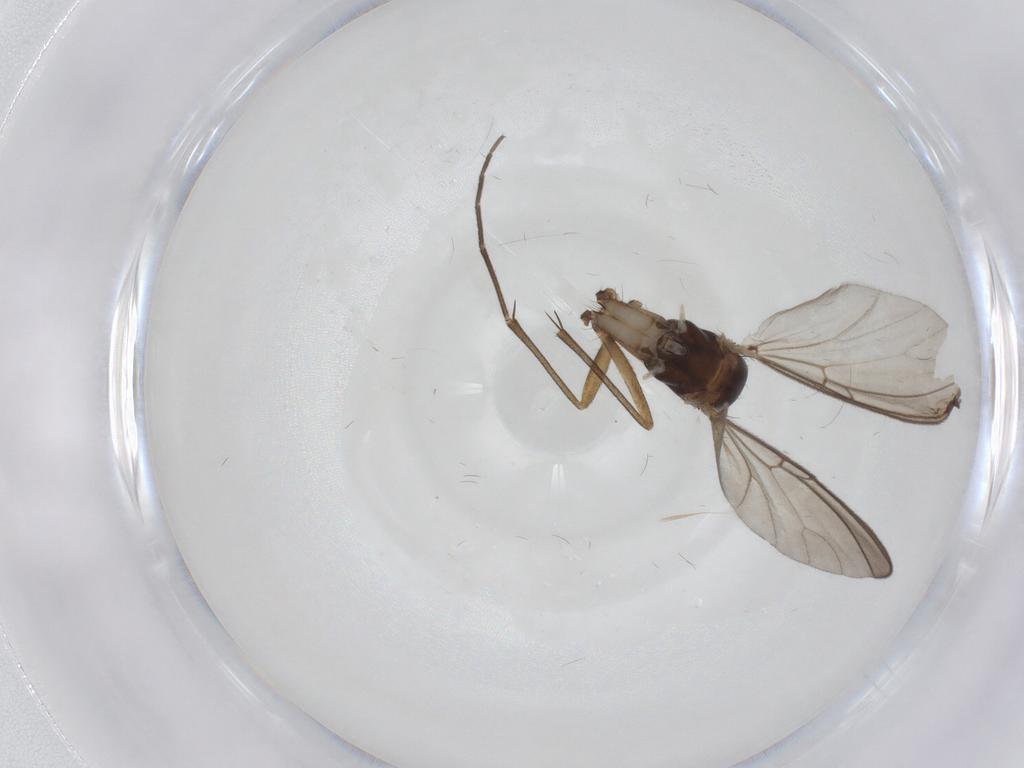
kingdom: Animalia
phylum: Arthropoda
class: Insecta
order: Diptera
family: Mycetophilidae
